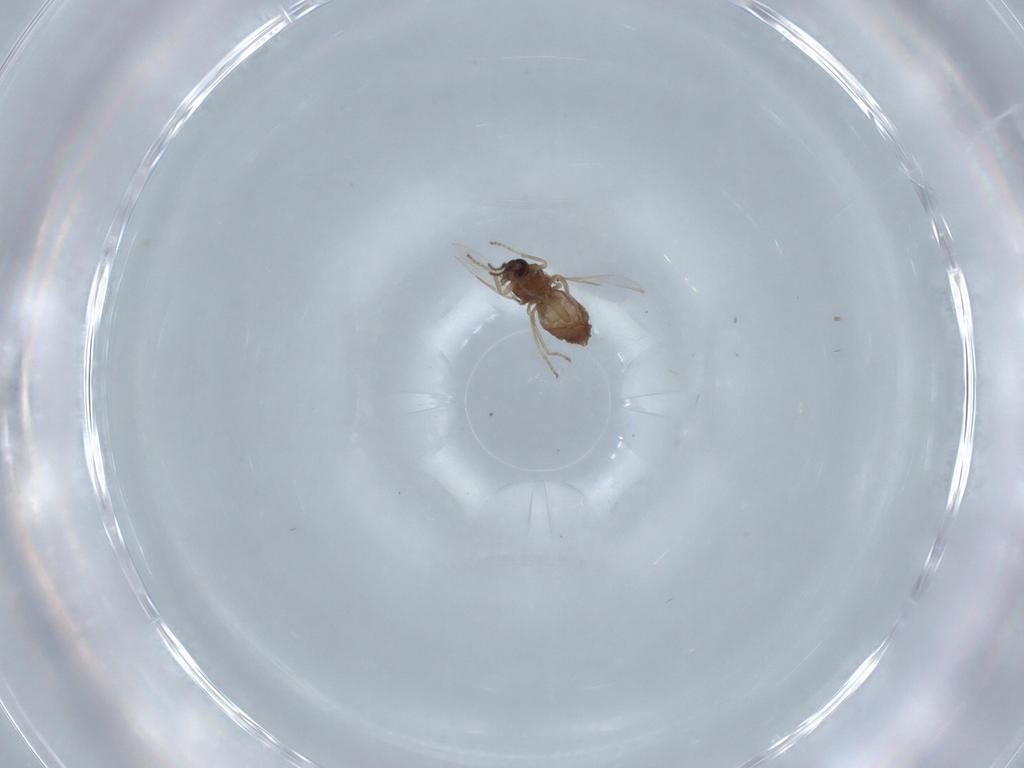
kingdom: Animalia
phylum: Arthropoda
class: Insecta
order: Diptera
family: Ceratopogonidae
